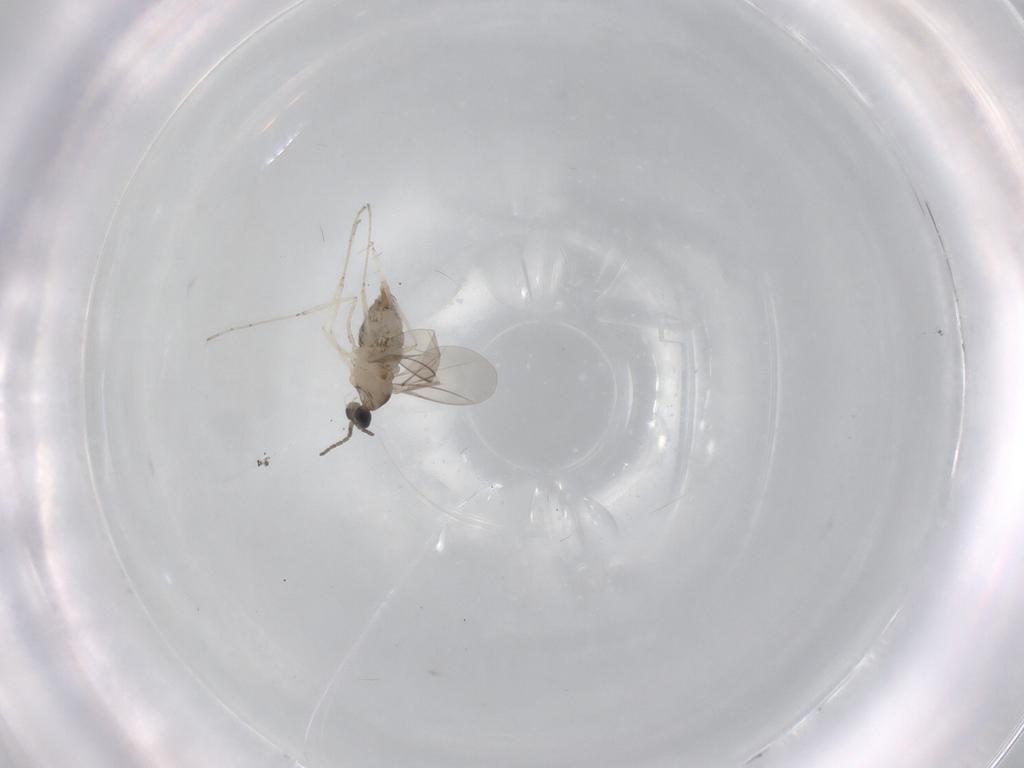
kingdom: Animalia
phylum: Arthropoda
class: Insecta
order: Diptera
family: Cecidomyiidae
